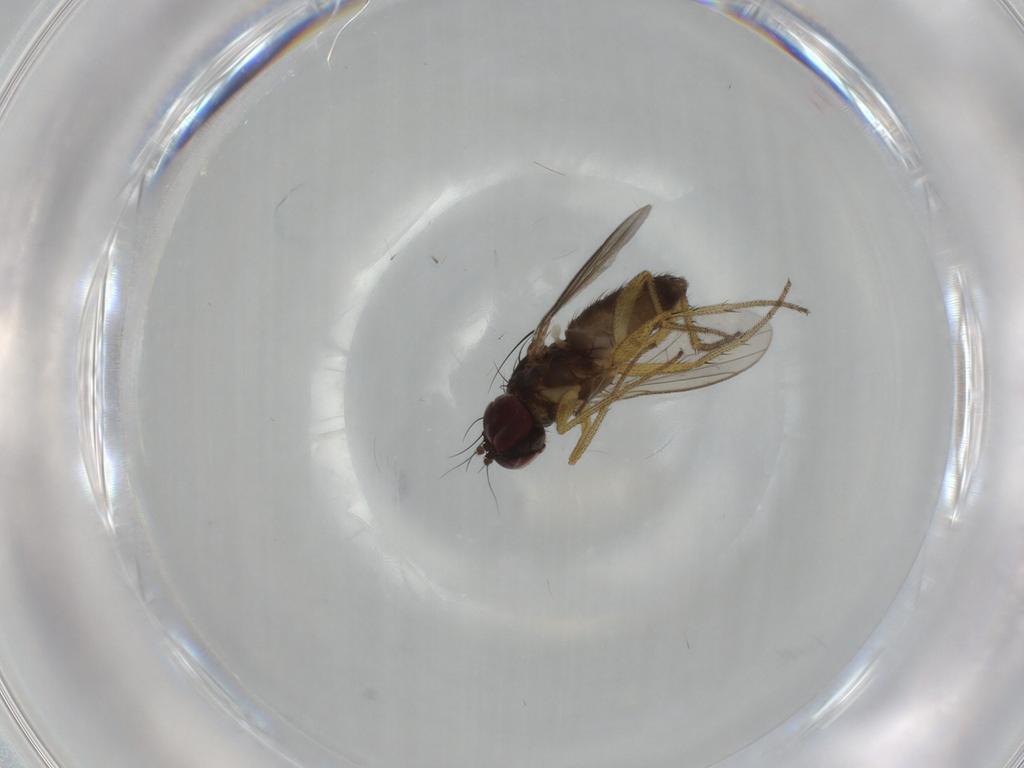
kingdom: Animalia
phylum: Arthropoda
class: Insecta
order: Diptera
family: Dolichopodidae
